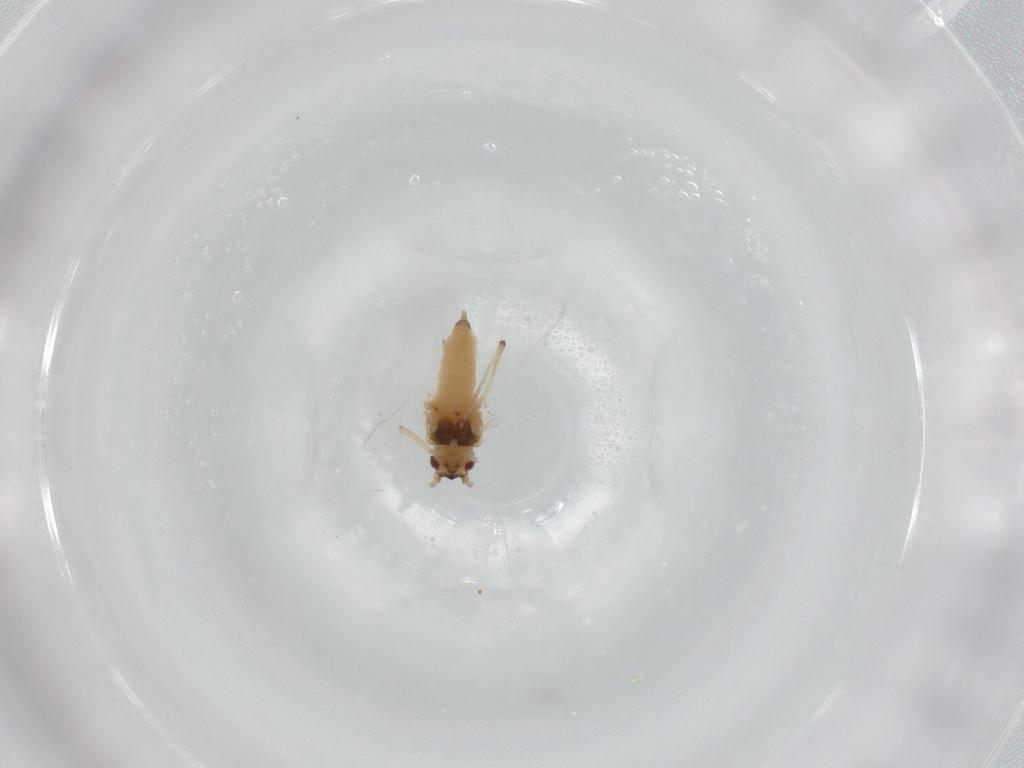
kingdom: Animalia
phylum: Arthropoda
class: Insecta
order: Hemiptera
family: Aphididae
